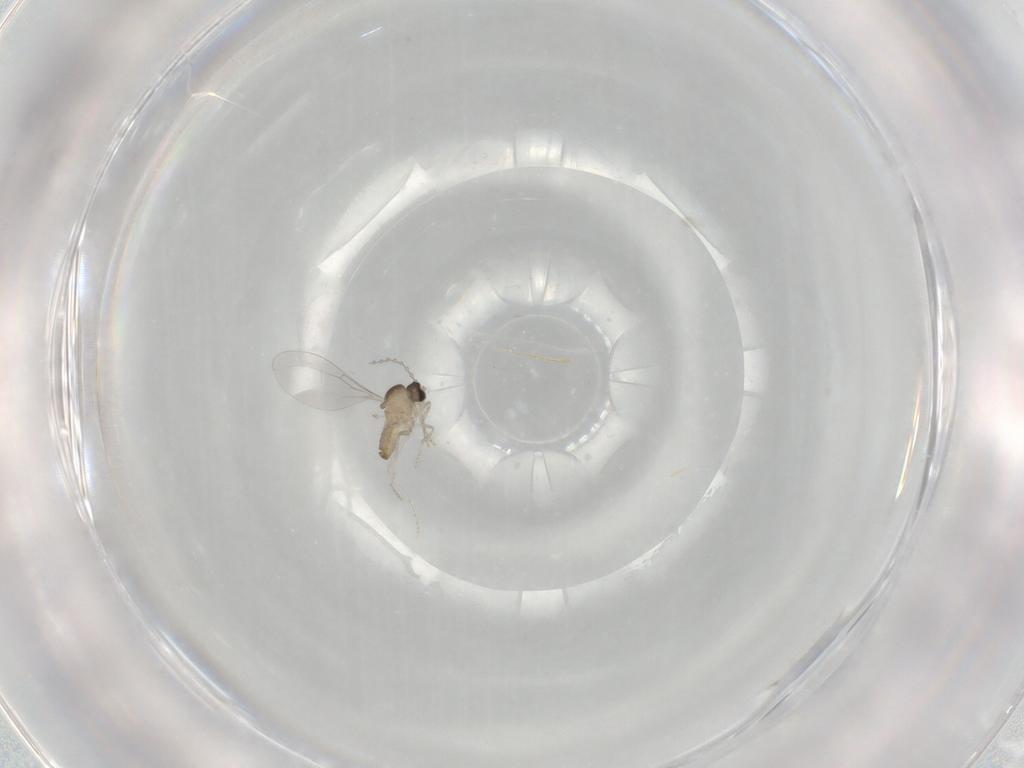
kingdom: Animalia
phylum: Arthropoda
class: Insecta
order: Diptera
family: Cecidomyiidae
